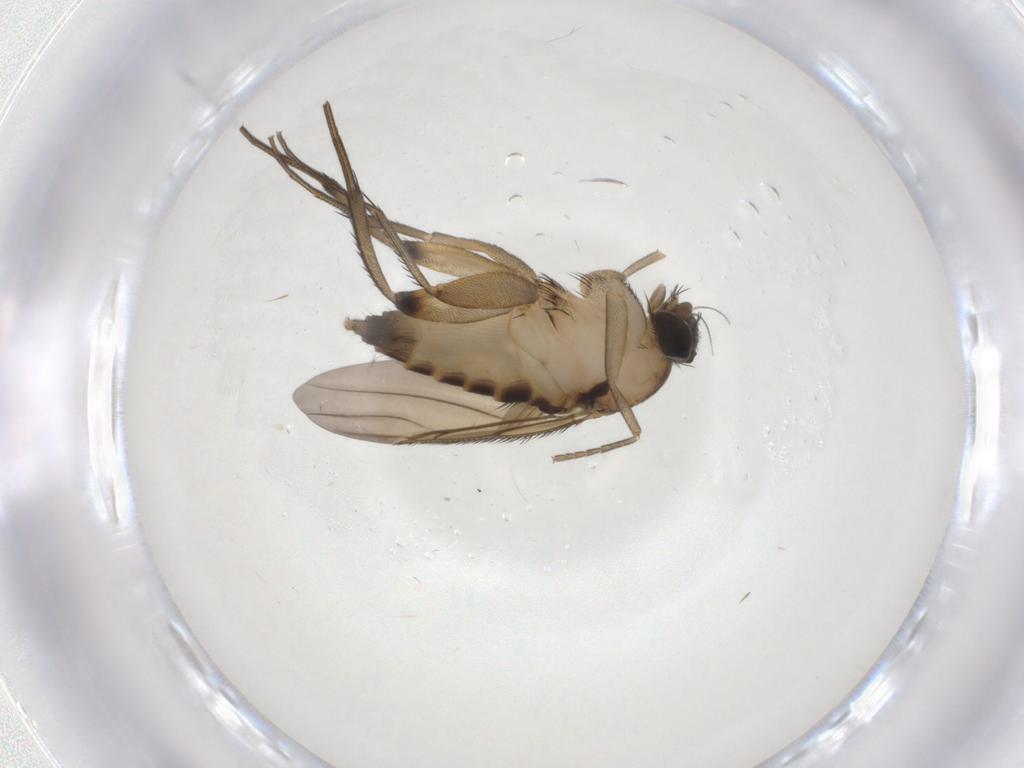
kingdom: Animalia
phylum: Arthropoda
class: Insecta
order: Diptera
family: Phoridae
